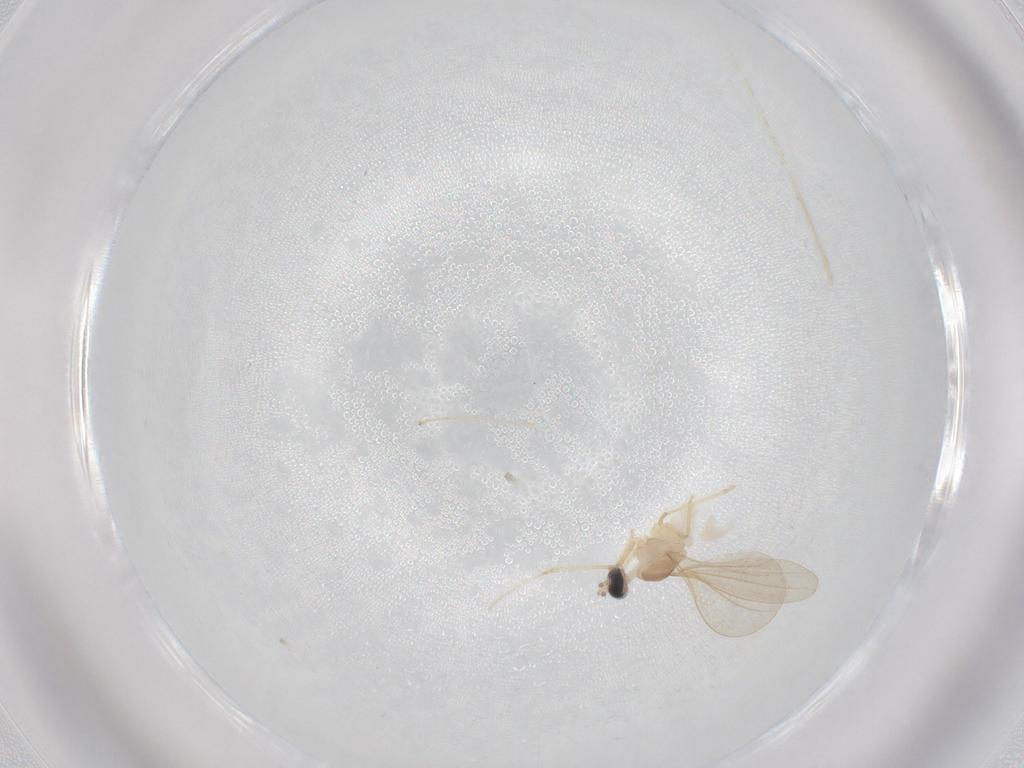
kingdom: Animalia
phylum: Arthropoda
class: Insecta
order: Diptera
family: Cecidomyiidae
